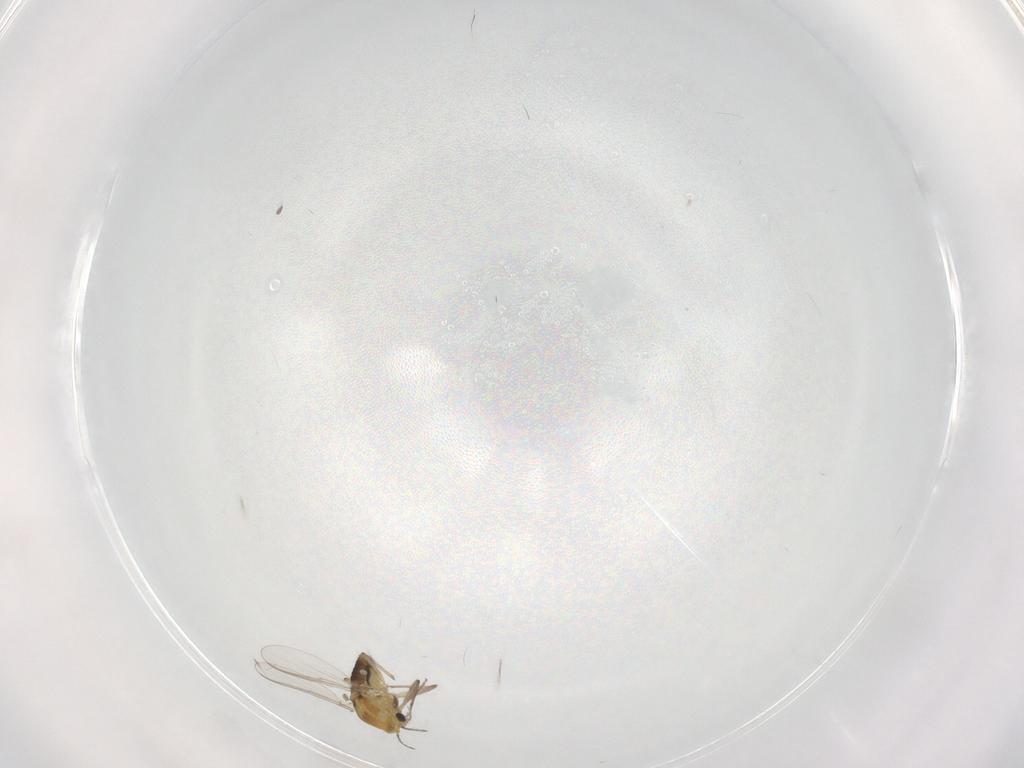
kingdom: Animalia
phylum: Arthropoda
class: Insecta
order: Diptera
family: Chironomidae
